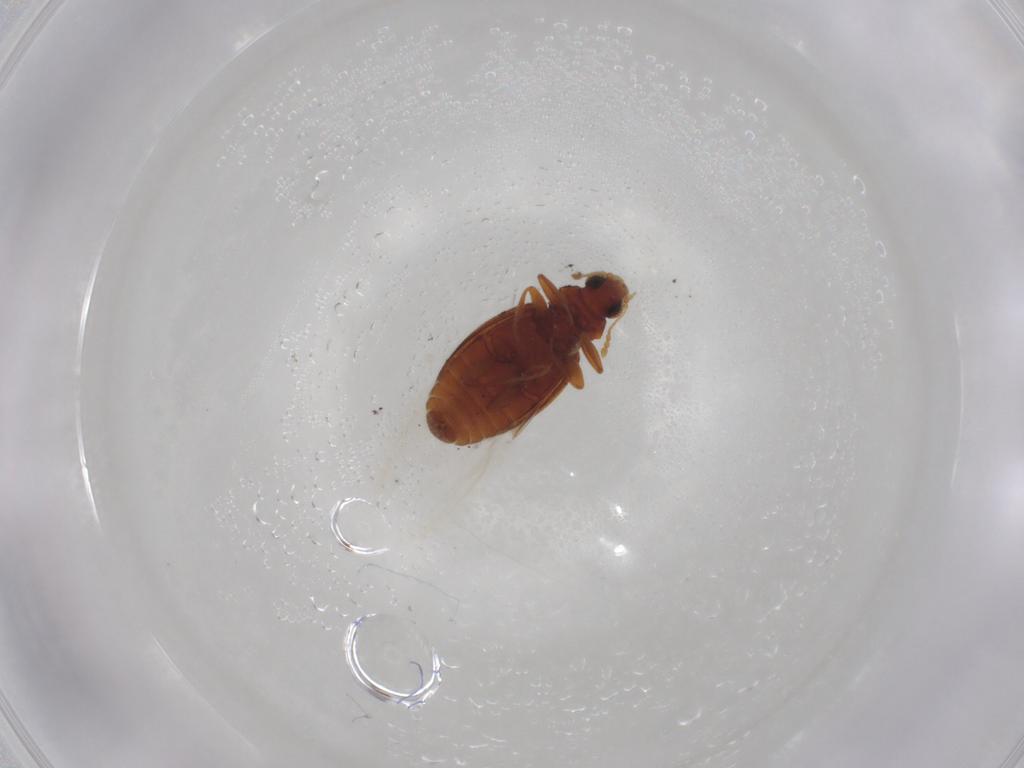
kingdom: Animalia
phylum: Arthropoda
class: Insecta
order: Coleoptera
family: Latridiidae
